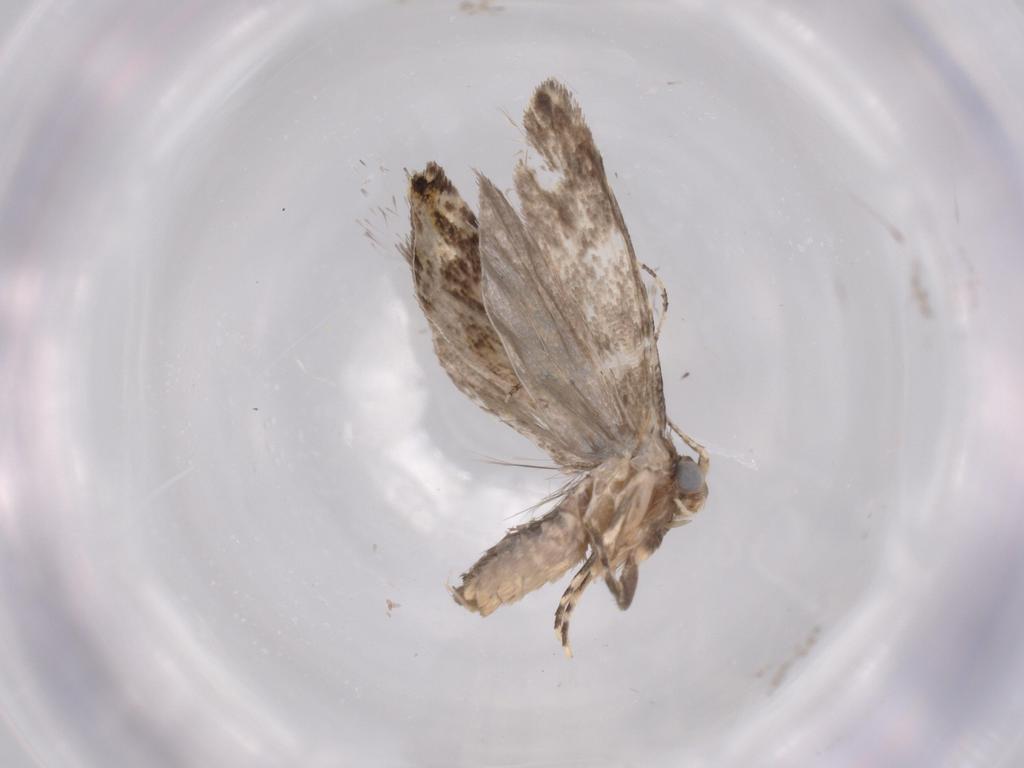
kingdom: Animalia
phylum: Arthropoda
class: Insecta
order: Lepidoptera
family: Tineidae
